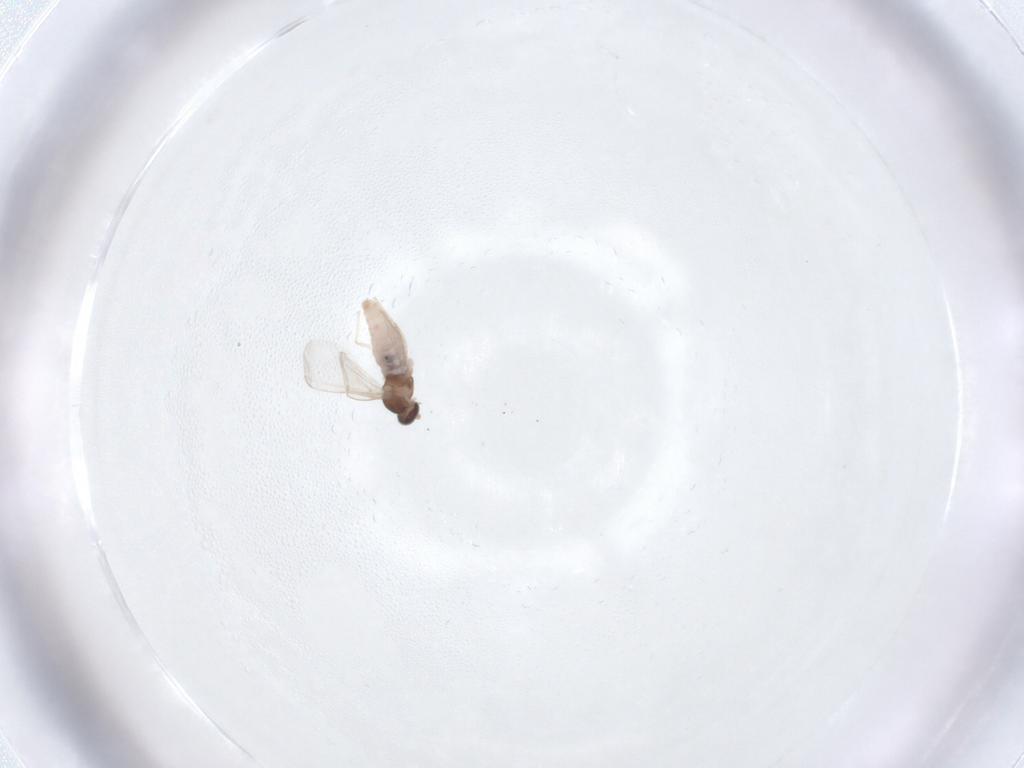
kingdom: Animalia
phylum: Arthropoda
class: Insecta
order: Diptera
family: Cecidomyiidae
